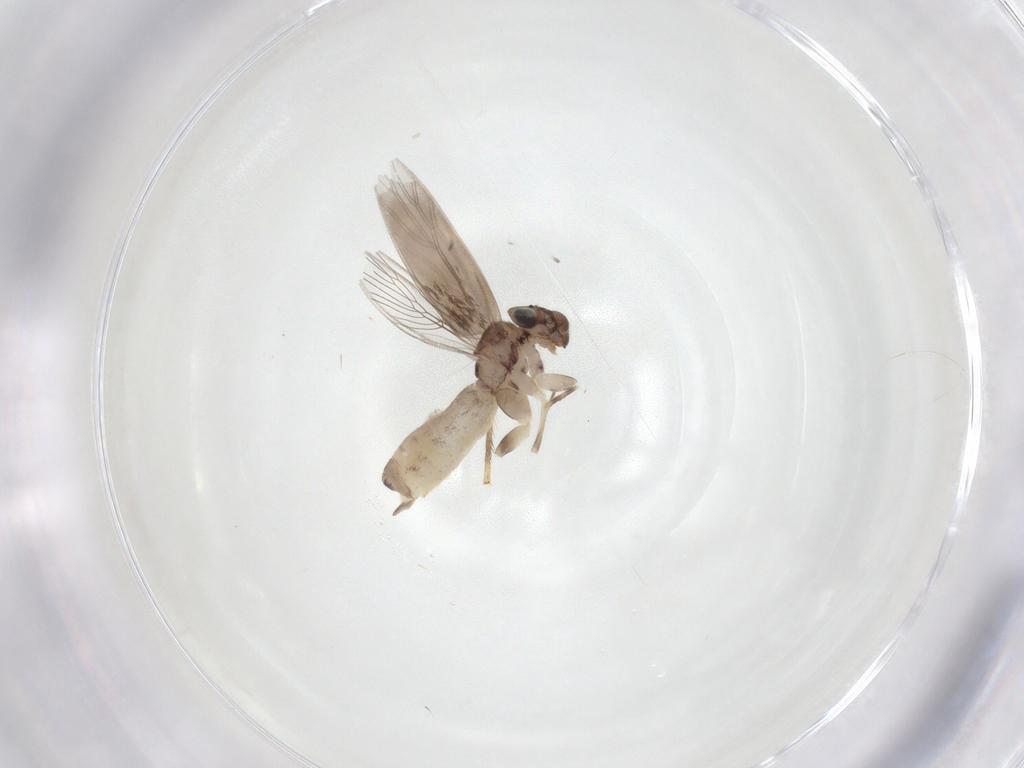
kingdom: Animalia
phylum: Arthropoda
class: Insecta
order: Psocodea
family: Lepidopsocidae
